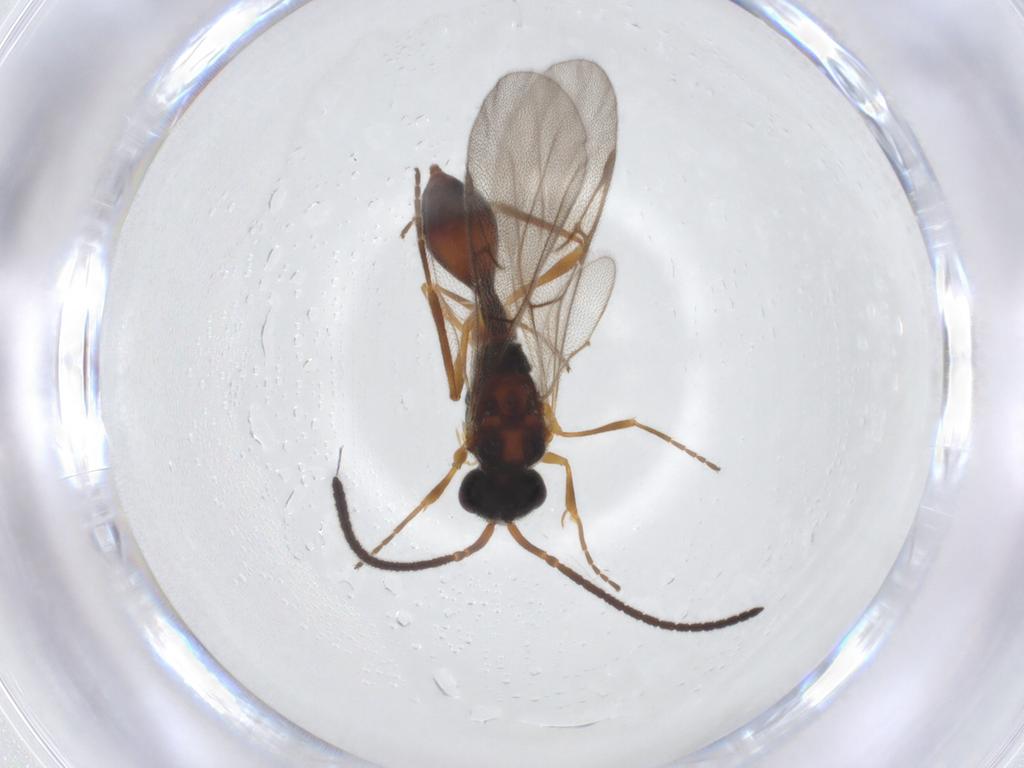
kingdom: Animalia
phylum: Arthropoda
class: Insecta
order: Hymenoptera
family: Diapriidae
